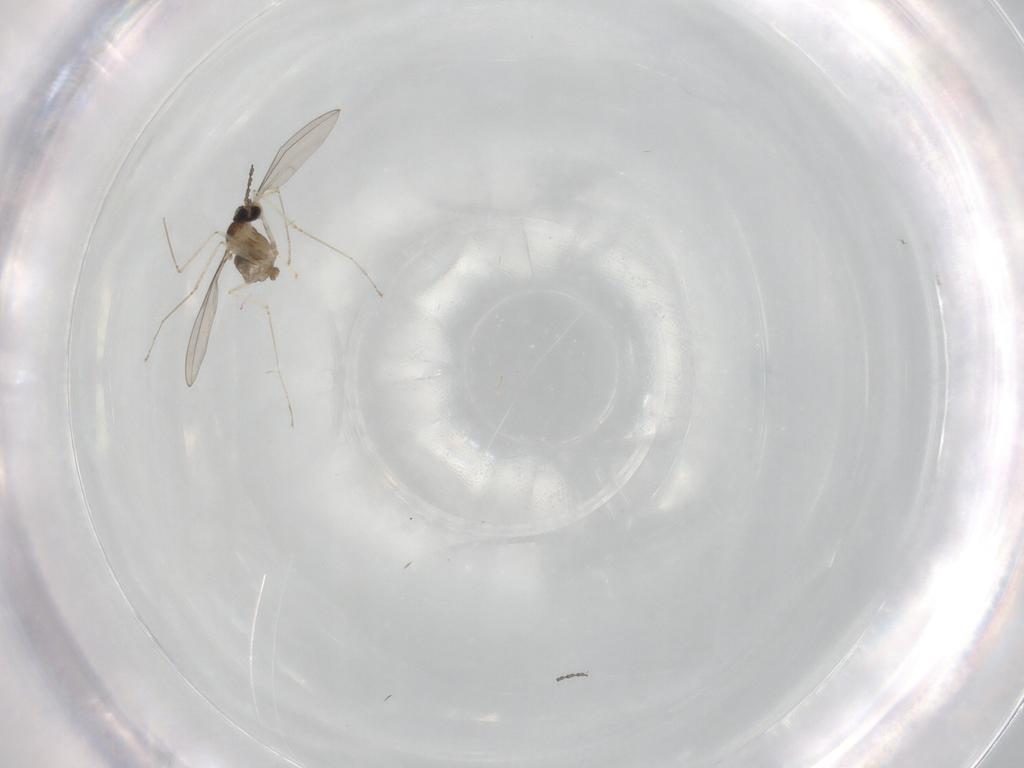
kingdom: Animalia
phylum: Arthropoda
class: Insecta
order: Diptera
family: Cecidomyiidae
